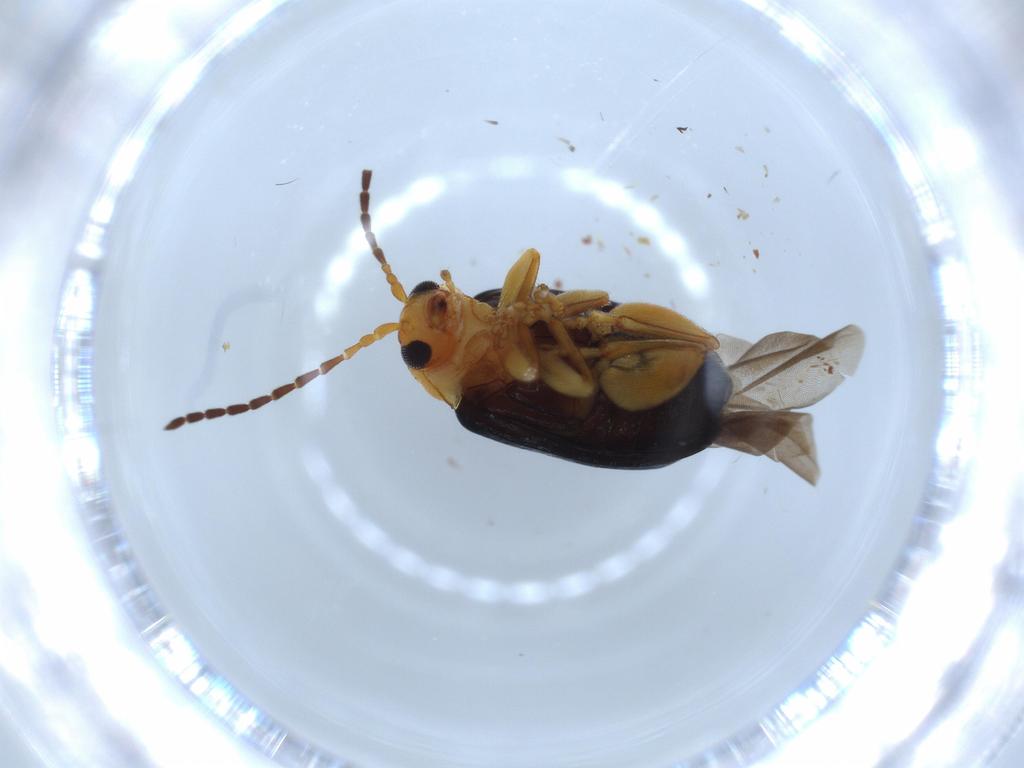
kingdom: Animalia
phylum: Arthropoda
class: Insecta
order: Coleoptera
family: Chrysomelidae
